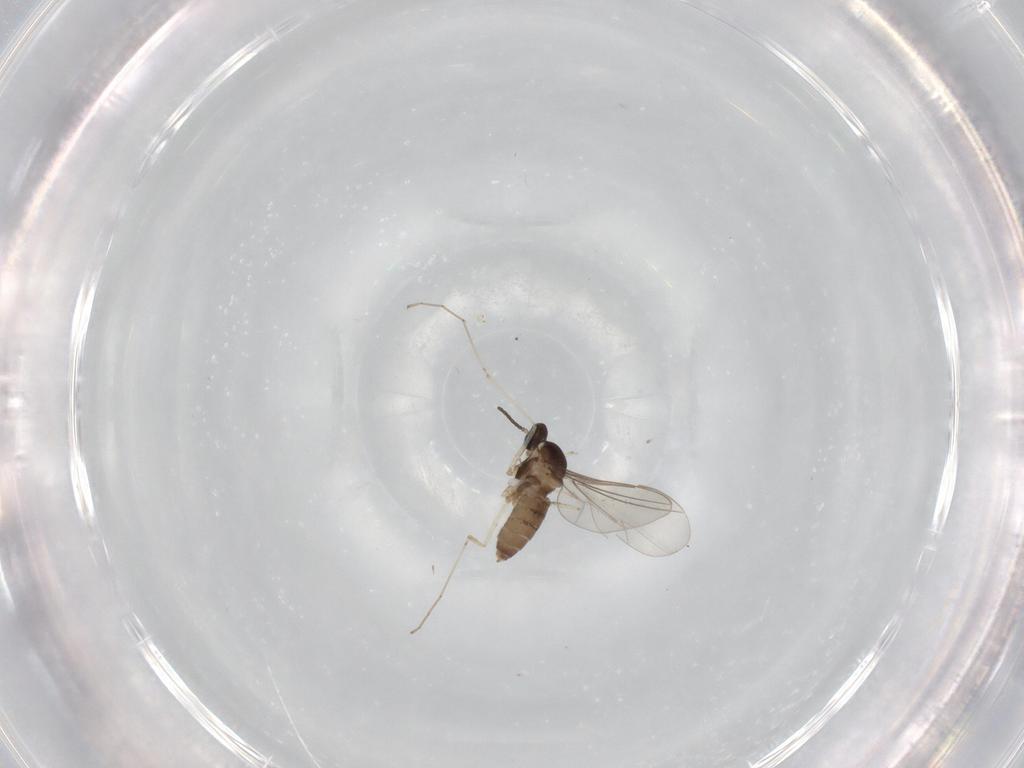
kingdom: Animalia
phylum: Arthropoda
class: Insecta
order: Diptera
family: Cecidomyiidae
